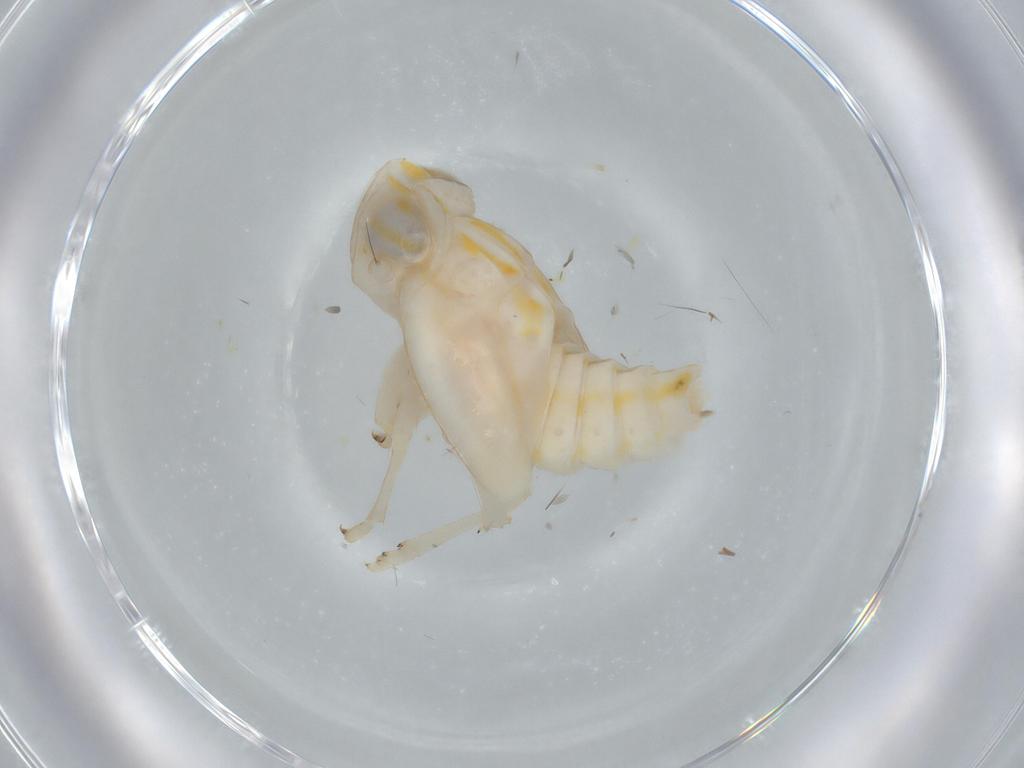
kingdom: Animalia
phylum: Arthropoda
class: Insecta
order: Hemiptera
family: Nogodinidae
